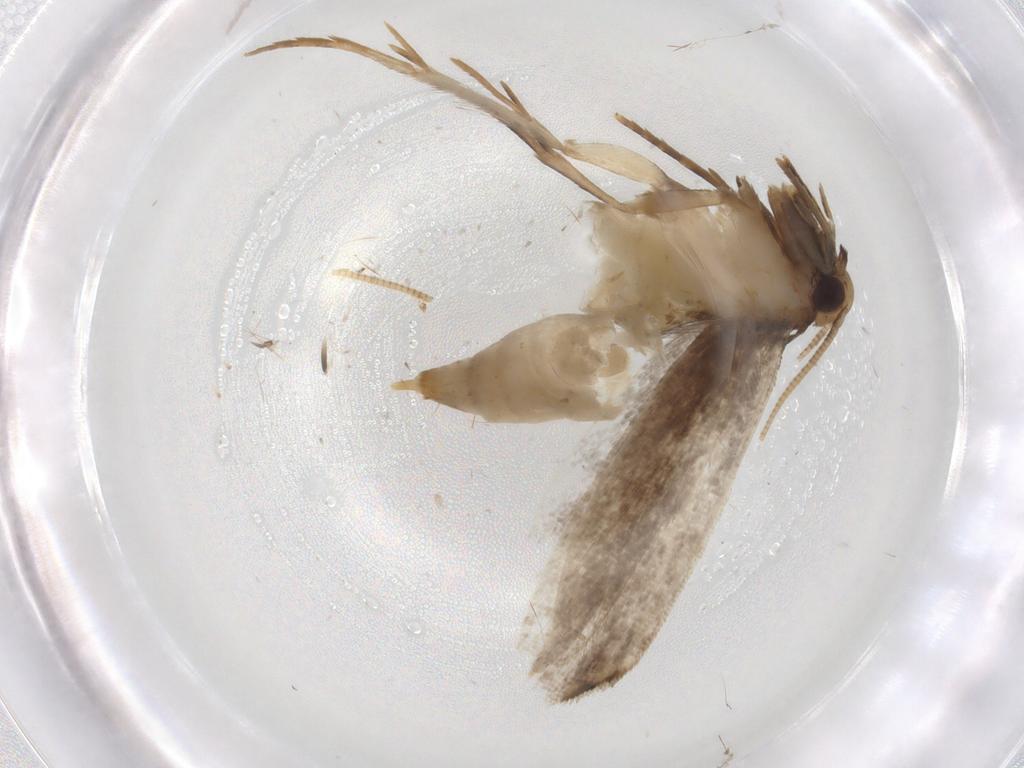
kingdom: Animalia
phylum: Arthropoda
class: Insecta
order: Lepidoptera
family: Tineidae
